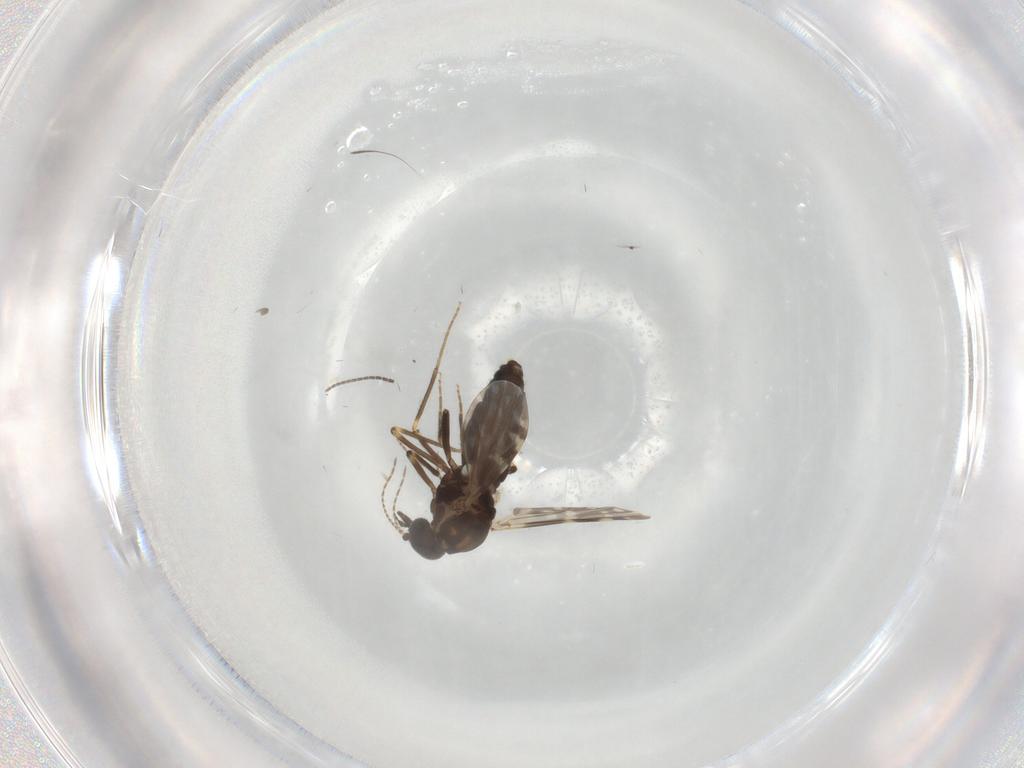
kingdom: Animalia
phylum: Arthropoda
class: Insecta
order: Diptera
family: Ceratopogonidae
